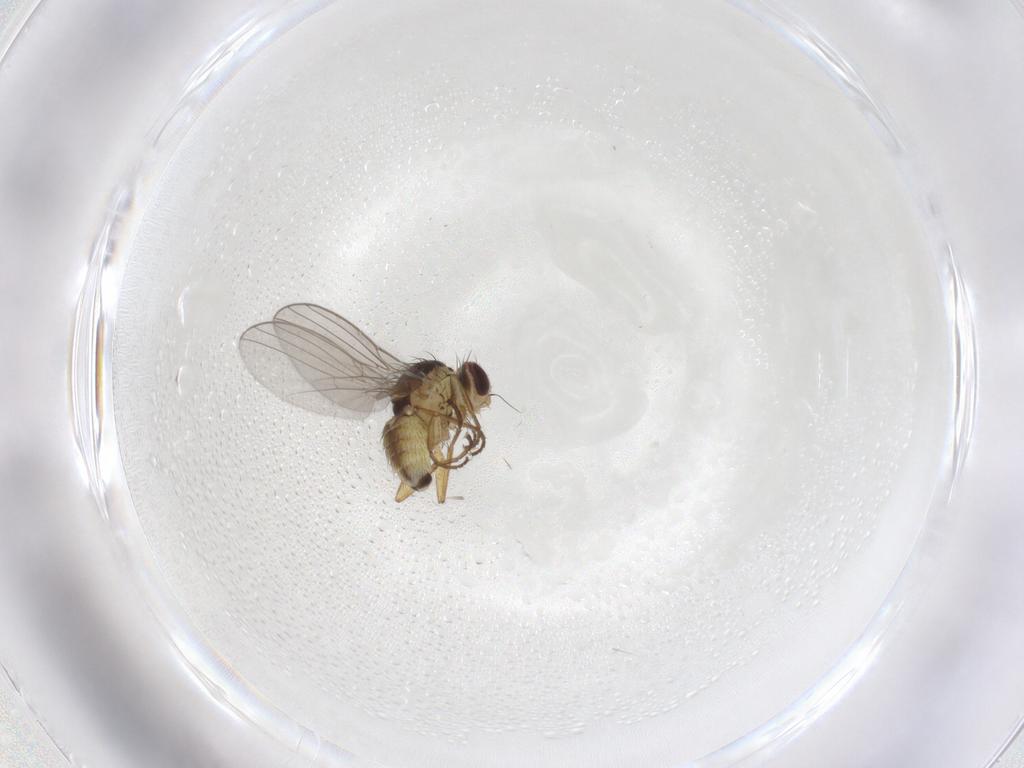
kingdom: Animalia
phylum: Arthropoda
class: Insecta
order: Diptera
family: Agromyzidae
